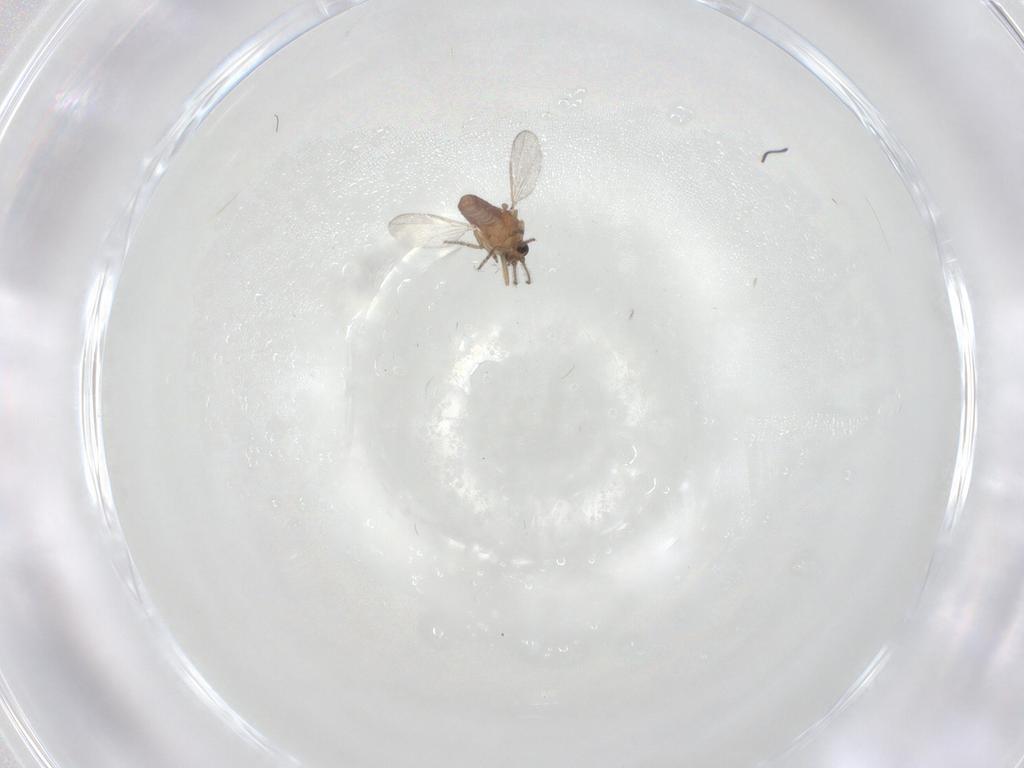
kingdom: Animalia
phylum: Arthropoda
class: Insecta
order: Diptera
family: Ceratopogonidae
